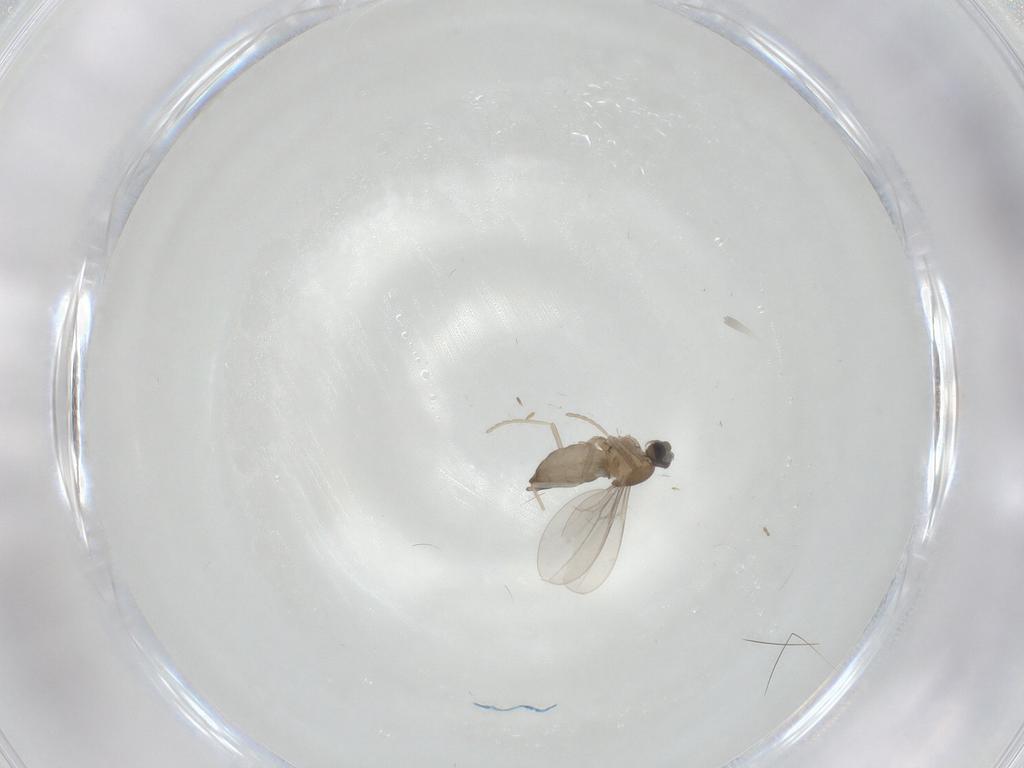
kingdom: Animalia
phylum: Arthropoda
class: Insecta
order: Diptera
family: Cecidomyiidae
